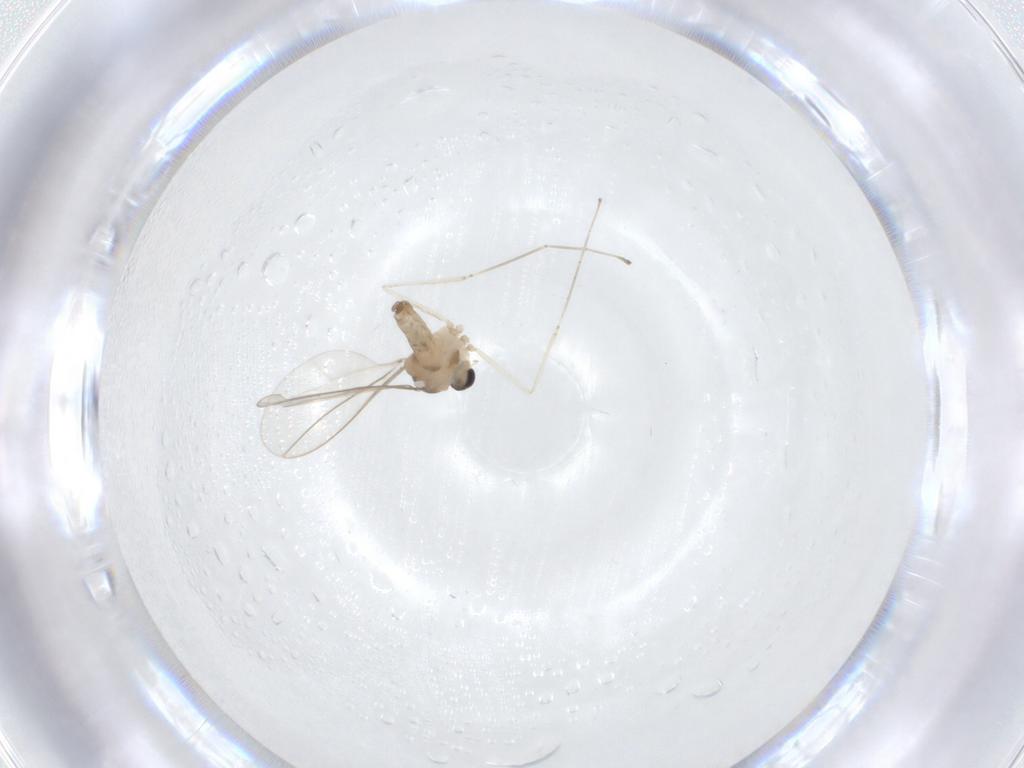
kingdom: Animalia
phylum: Arthropoda
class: Insecta
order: Diptera
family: Cecidomyiidae
